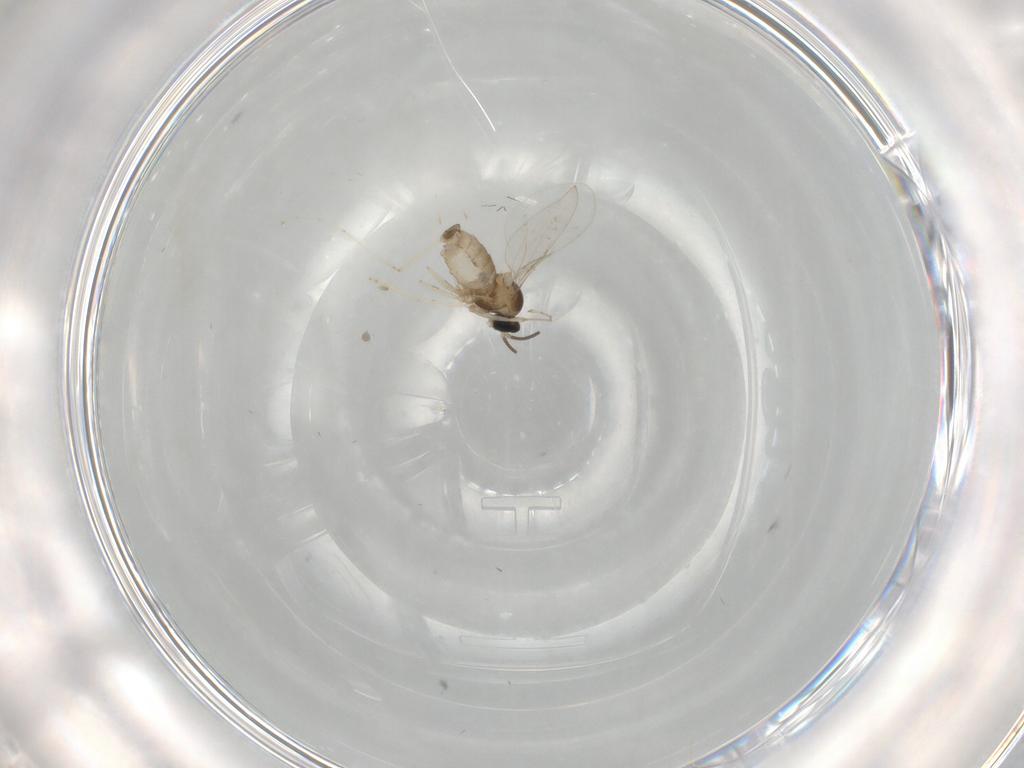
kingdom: Animalia
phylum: Arthropoda
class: Insecta
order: Diptera
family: Cecidomyiidae
